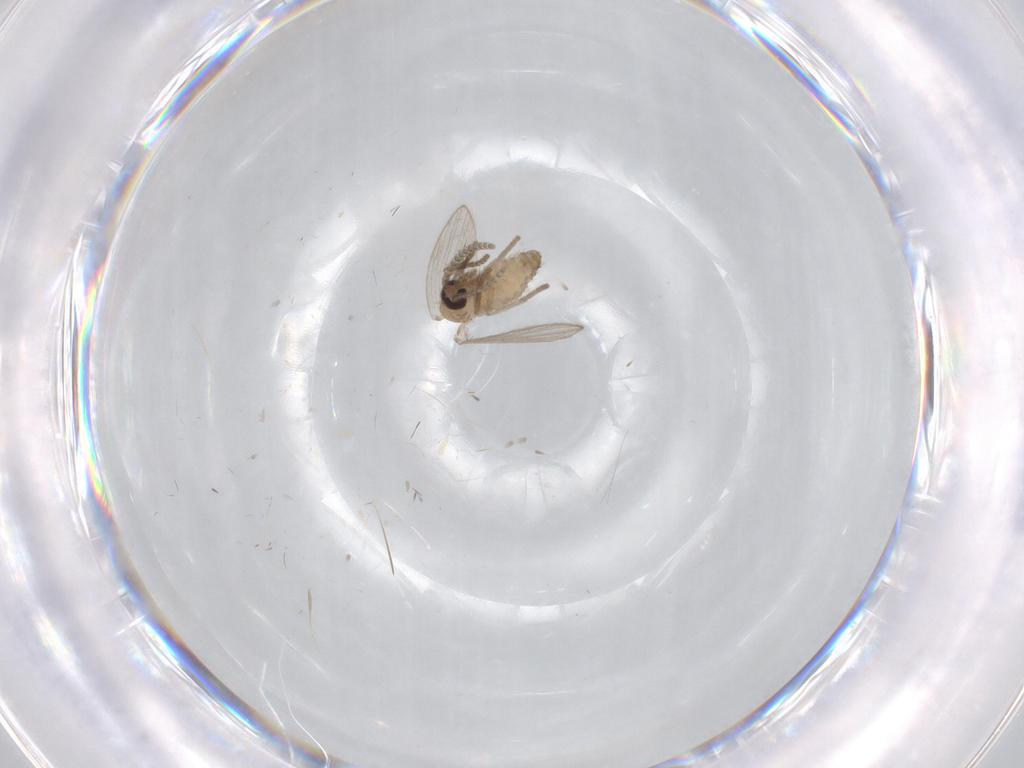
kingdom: Animalia
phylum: Arthropoda
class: Insecta
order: Diptera
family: Psychodidae
